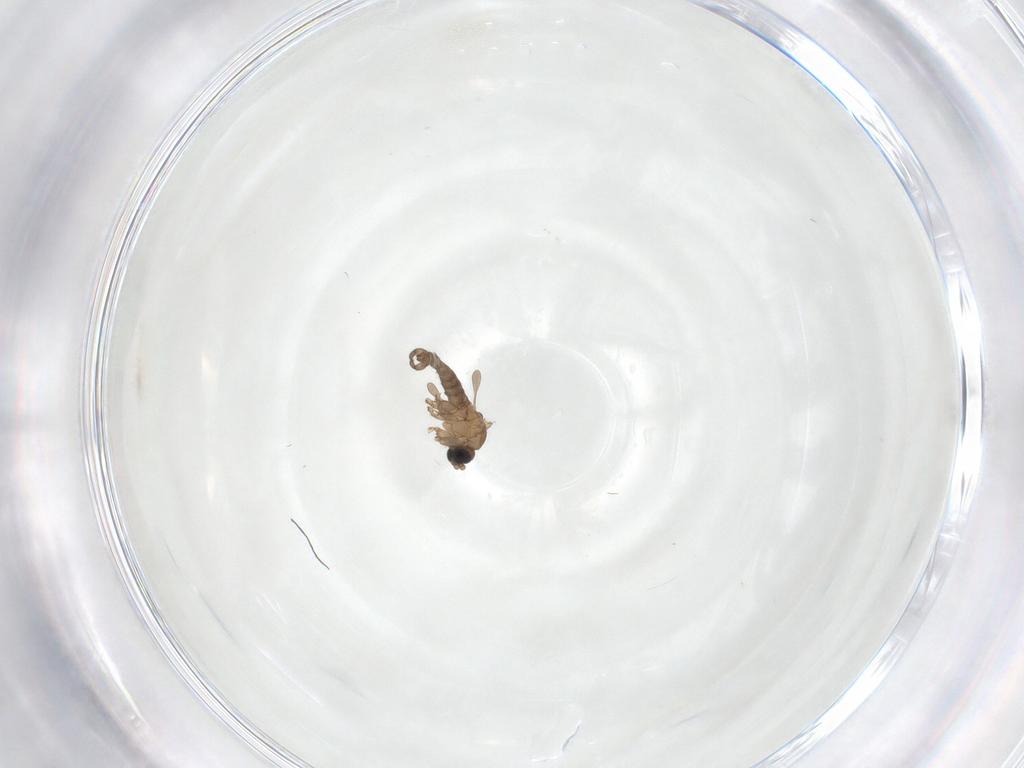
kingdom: Animalia
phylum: Arthropoda
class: Insecta
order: Diptera
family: Sciaridae
